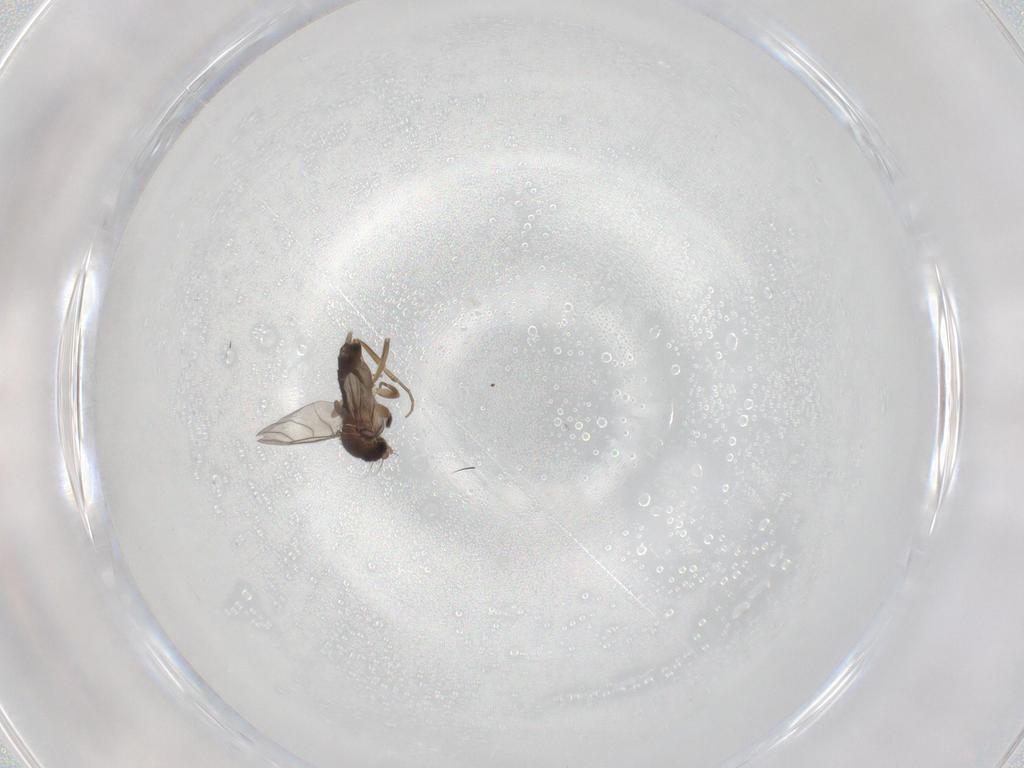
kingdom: Animalia
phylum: Arthropoda
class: Insecta
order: Diptera
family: Phoridae
